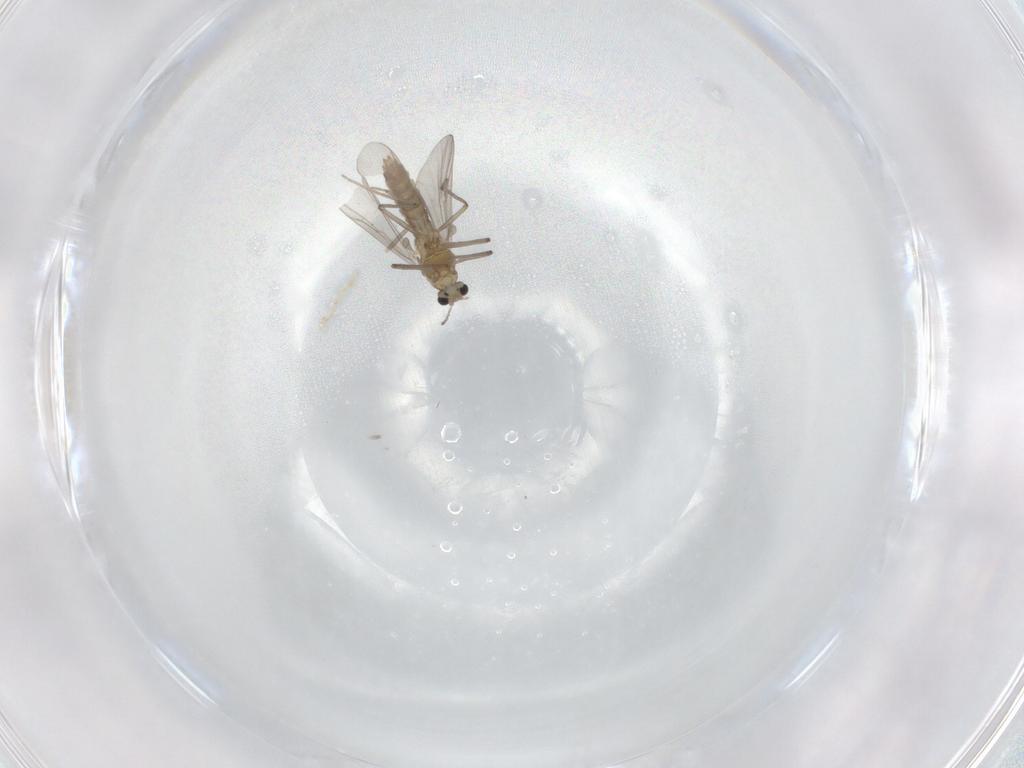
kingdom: Animalia
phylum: Arthropoda
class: Insecta
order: Diptera
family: Chironomidae
